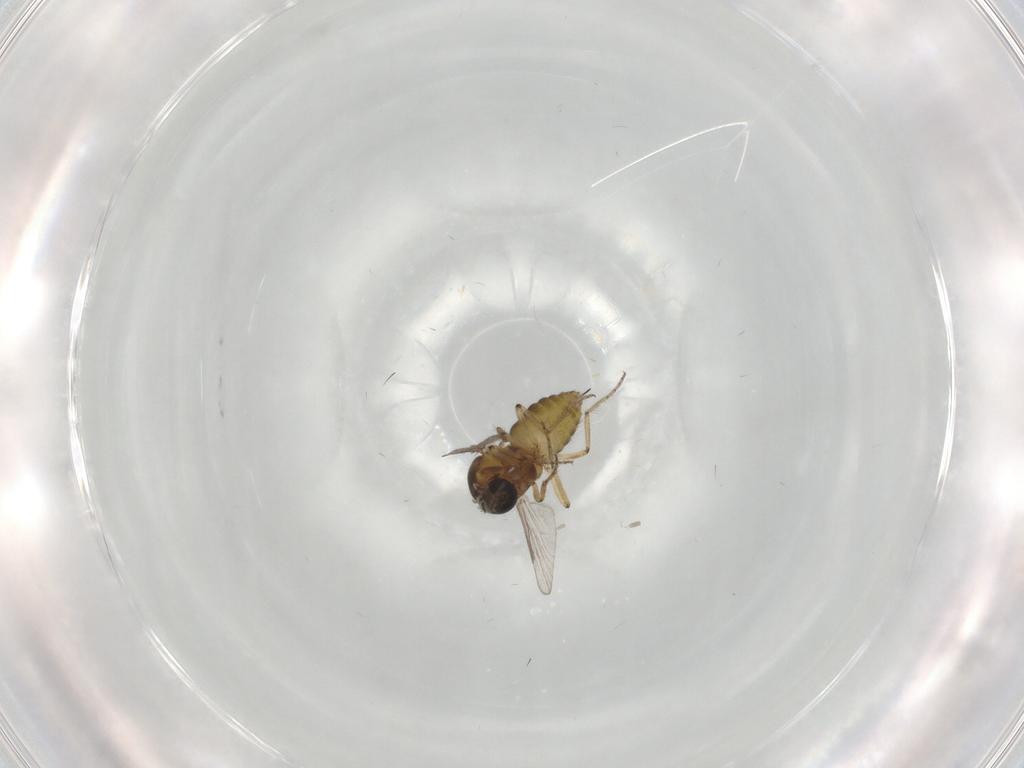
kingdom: Animalia
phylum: Arthropoda
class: Insecta
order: Diptera
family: Ceratopogonidae
